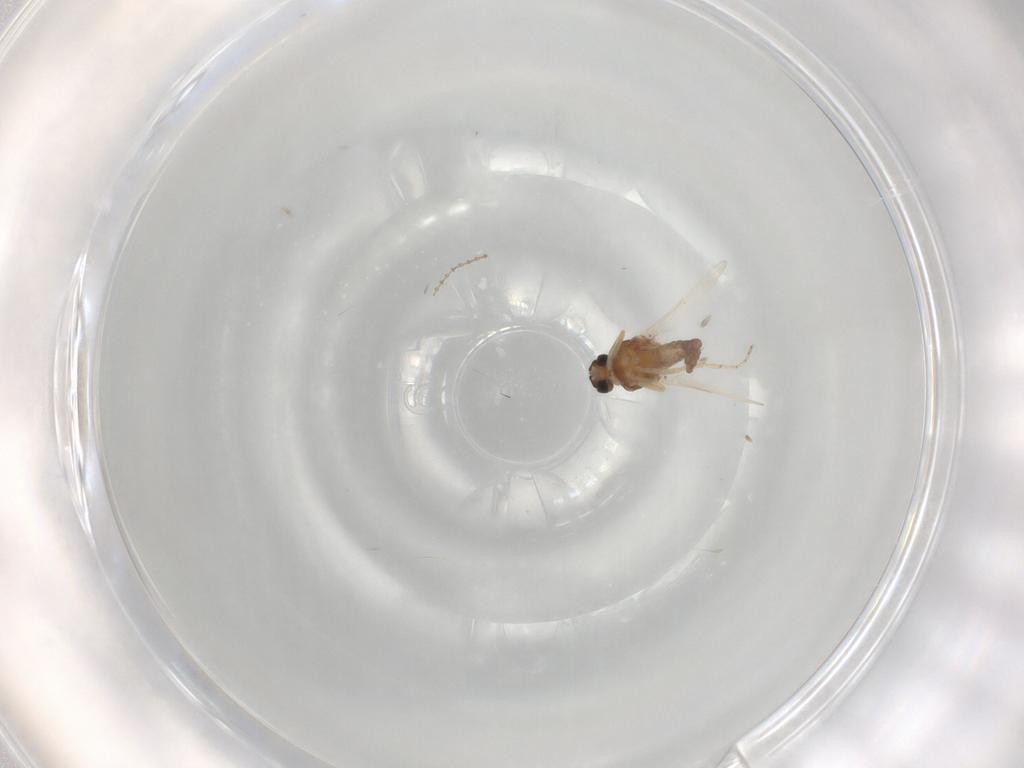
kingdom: Animalia
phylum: Arthropoda
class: Insecta
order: Diptera
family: Ceratopogonidae
